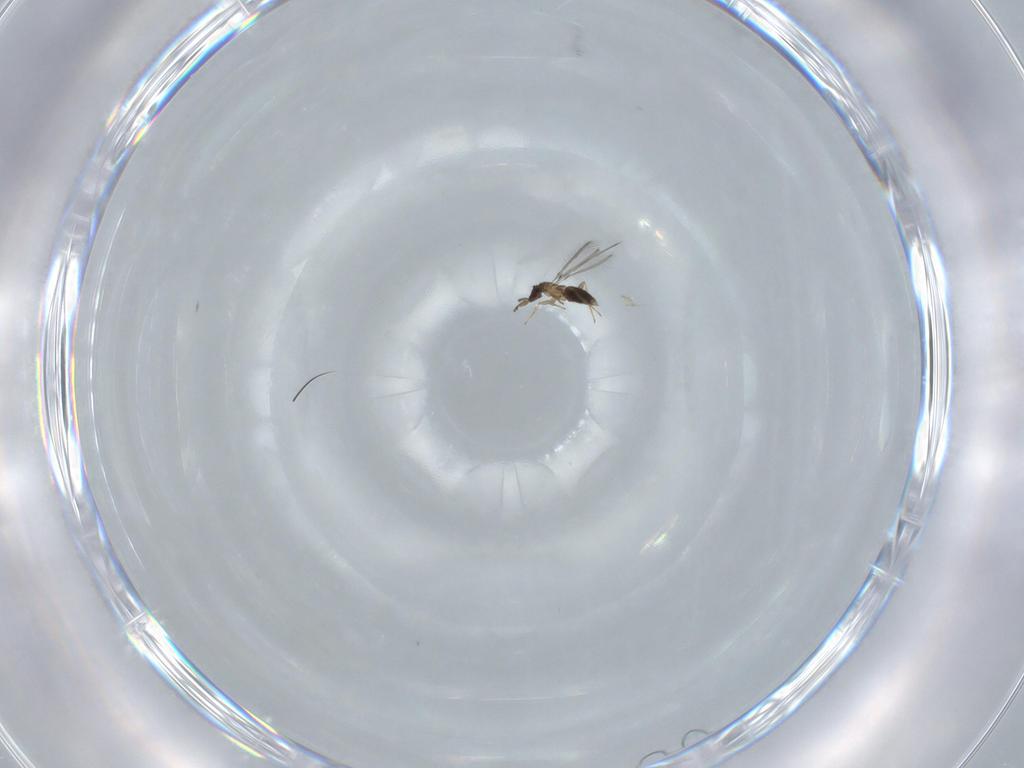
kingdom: Animalia
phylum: Arthropoda
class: Insecta
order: Hymenoptera
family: Mymaridae
